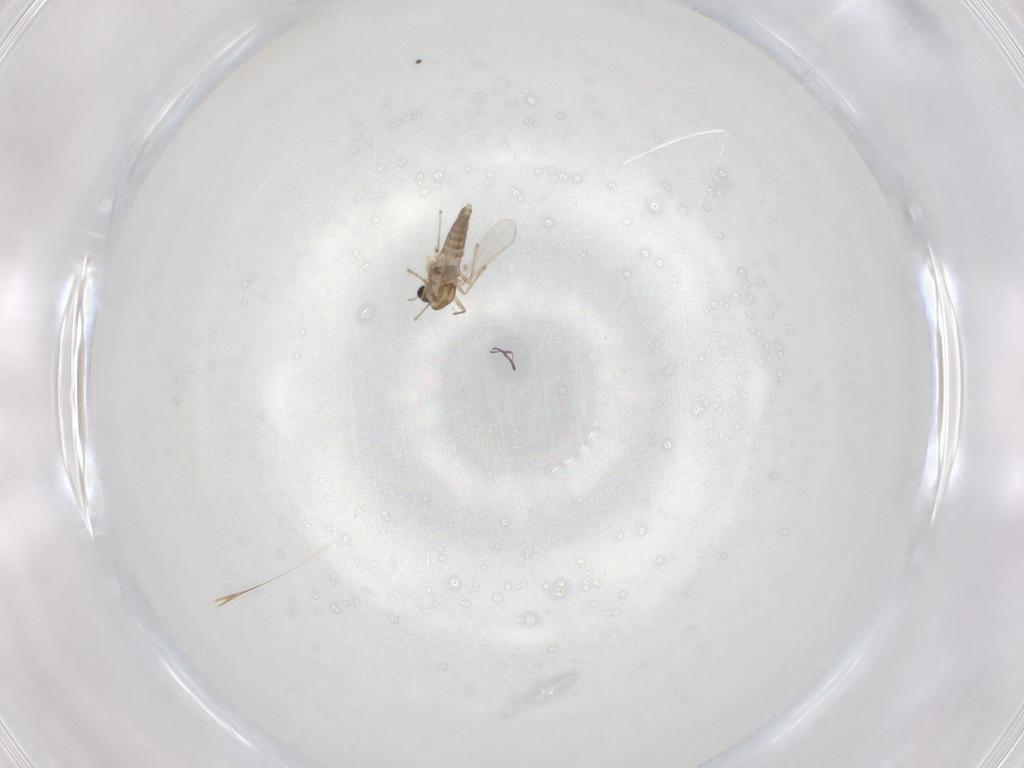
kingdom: Animalia
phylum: Arthropoda
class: Insecta
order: Diptera
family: Chironomidae
